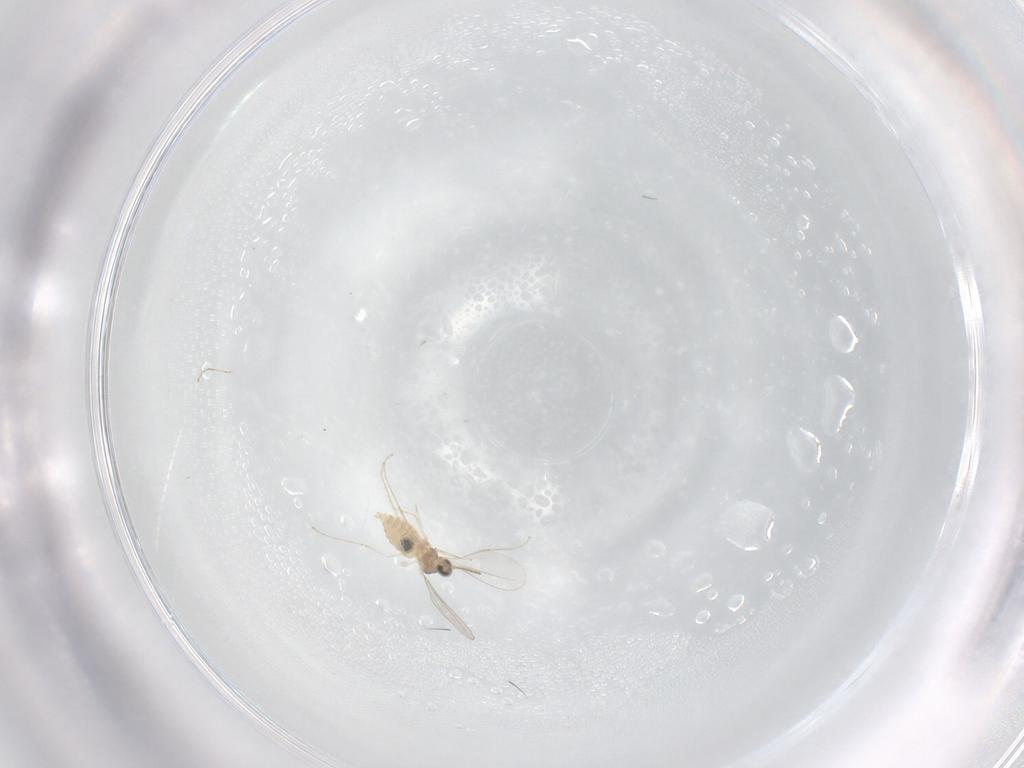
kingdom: Animalia
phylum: Arthropoda
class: Insecta
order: Diptera
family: Cecidomyiidae
